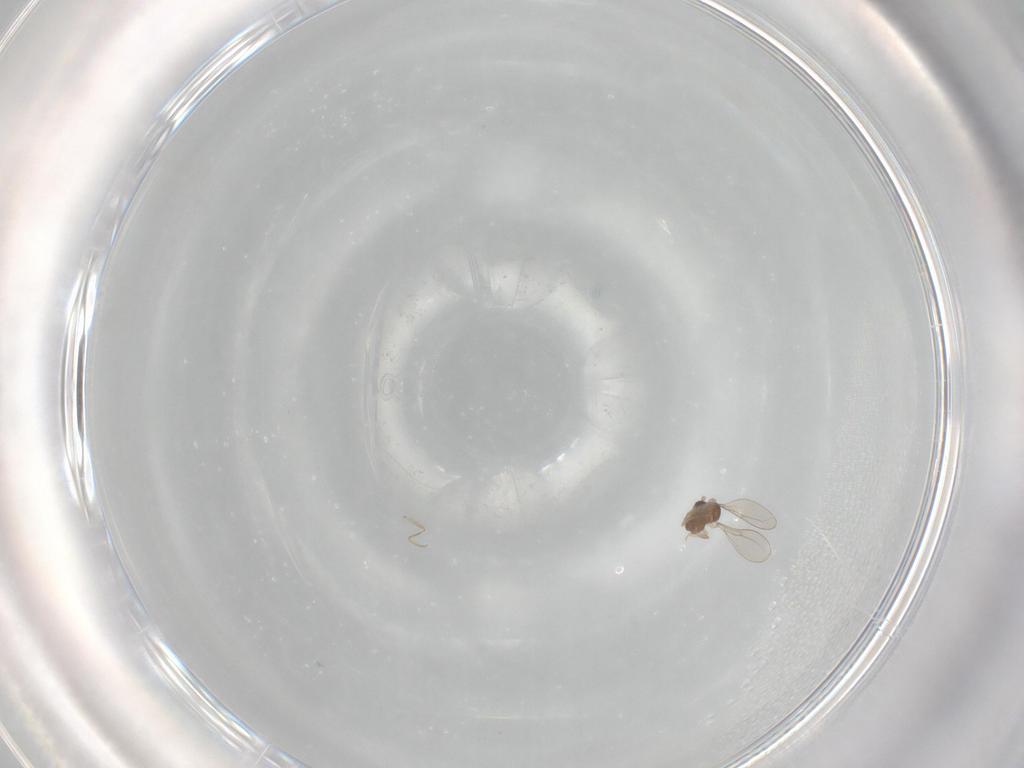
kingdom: Animalia
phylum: Arthropoda
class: Insecta
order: Diptera
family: Cecidomyiidae
